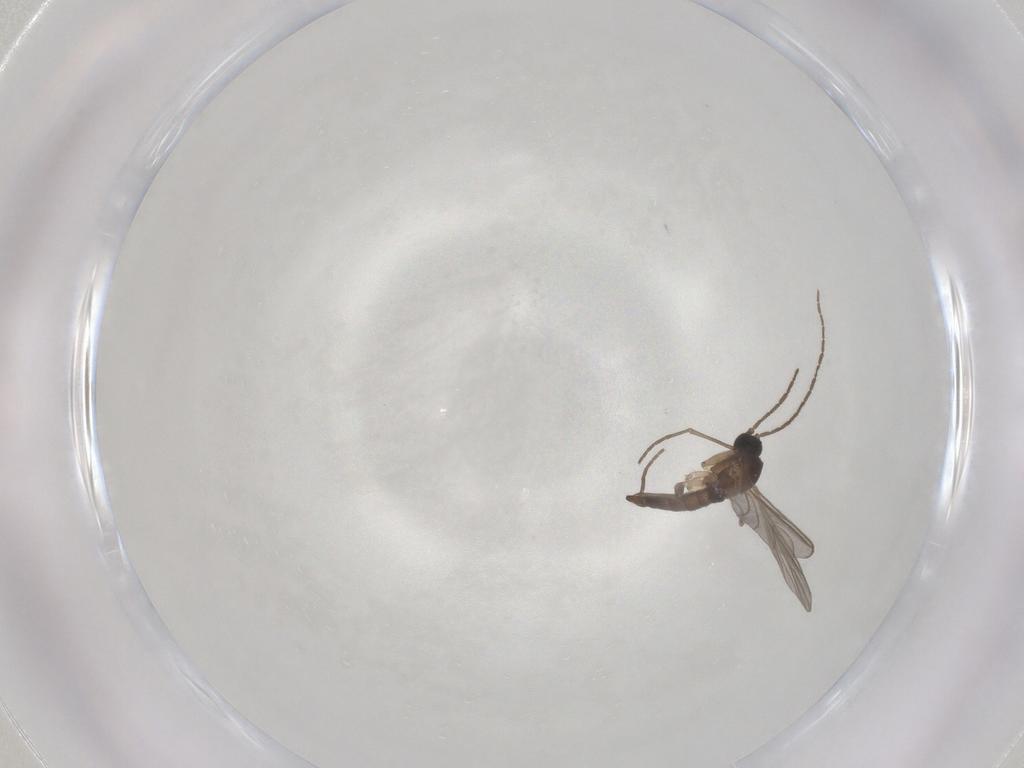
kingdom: Animalia
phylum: Arthropoda
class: Insecta
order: Diptera
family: Sciaridae
